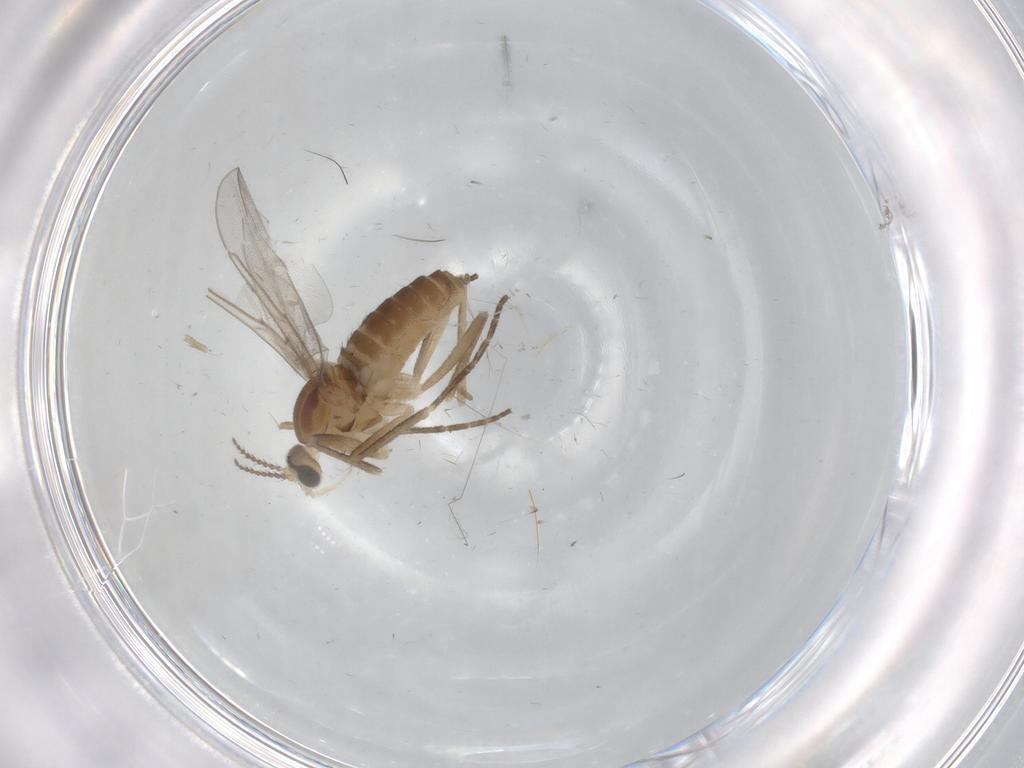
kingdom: Animalia
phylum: Arthropoda
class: Insecta
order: Diptera
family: Cecidomyiidae
